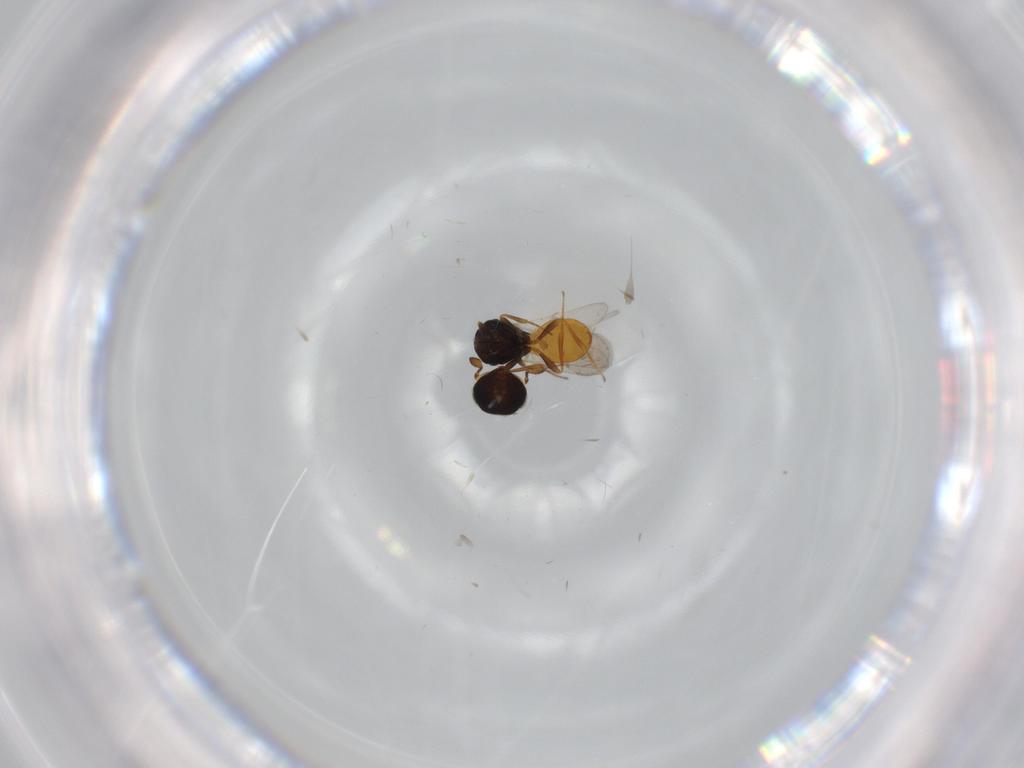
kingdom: Animalia
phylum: Arthropoda
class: Insecta
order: Hymenoptera
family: Scelionidae
